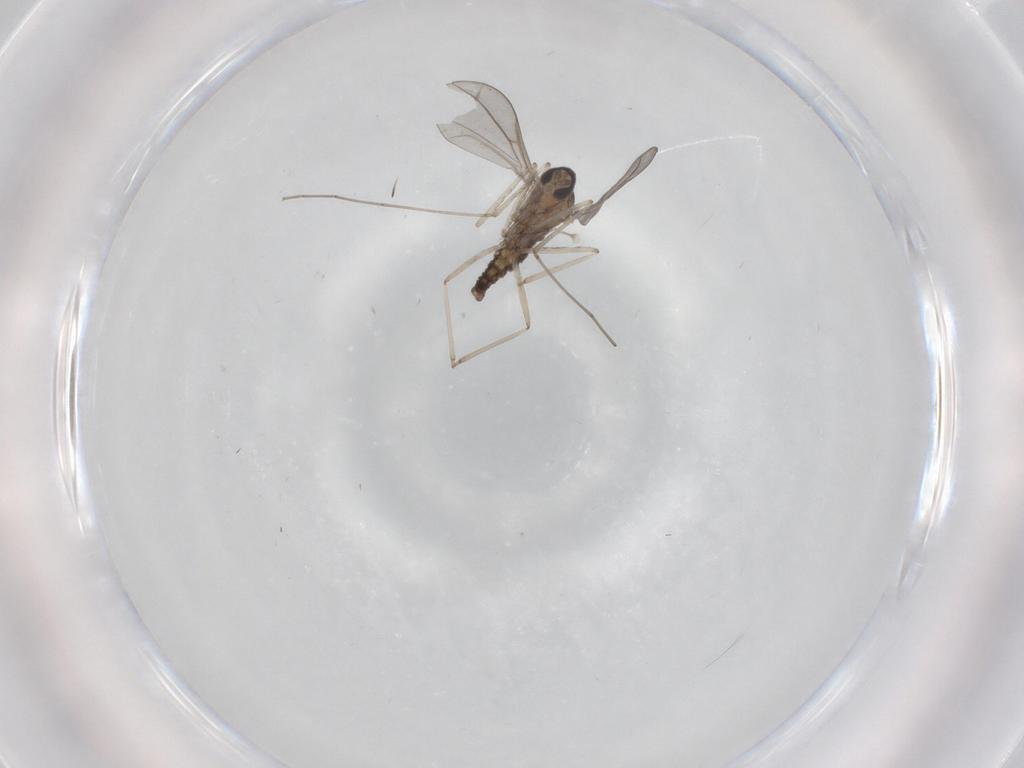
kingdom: Animalia
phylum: Arthropoda
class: Insecta
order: Diptera
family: Cecidomyiidae
